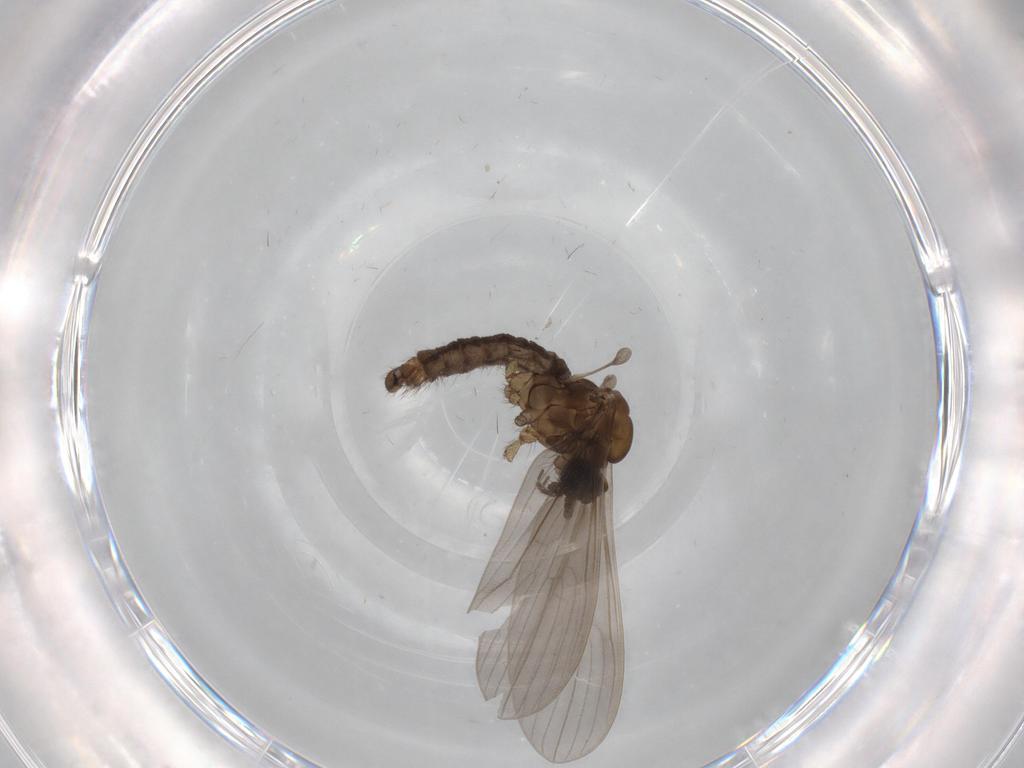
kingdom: Animalia
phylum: Arthropoda
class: Insecta
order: Diptera
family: Limoniidae
